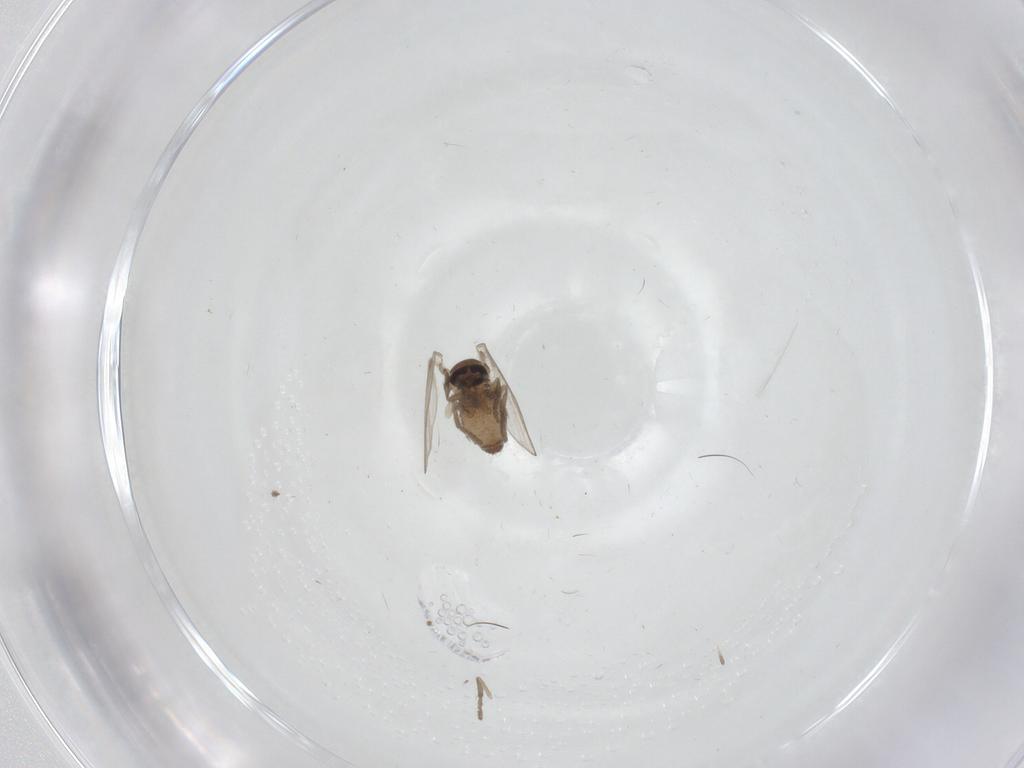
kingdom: Animalia
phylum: Arthropoda
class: Insecta
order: Diptera
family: Psychodidae
